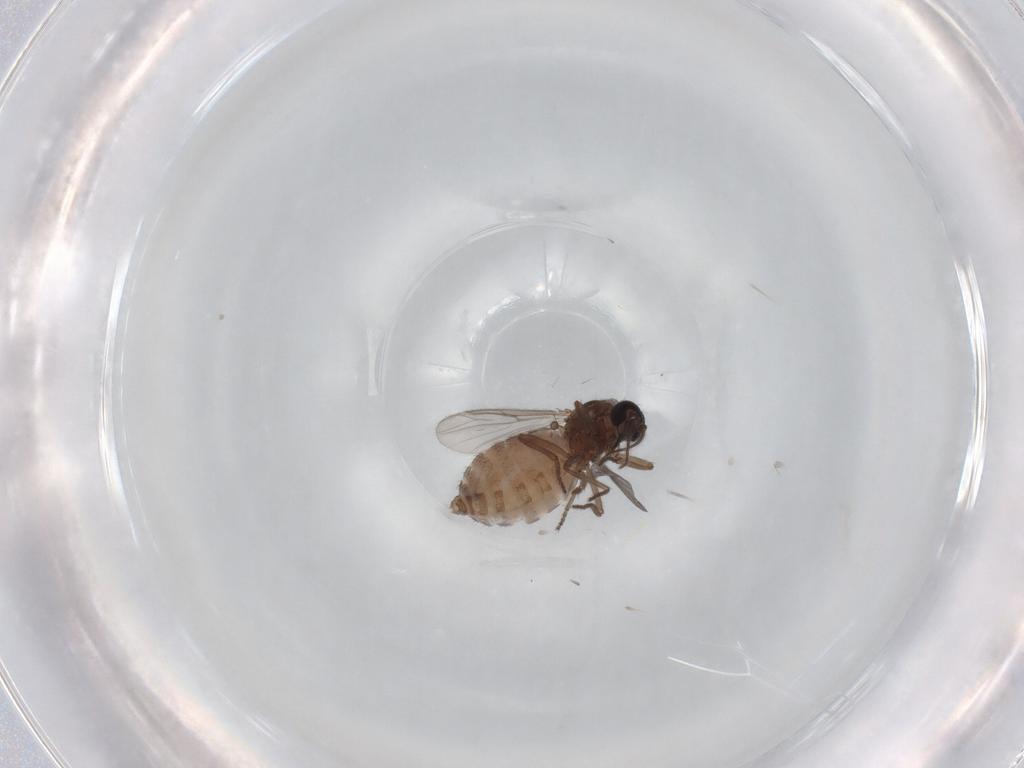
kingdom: Animalia
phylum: Arthropoda
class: Insecta
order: Diptera
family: Ceratopogonidae
